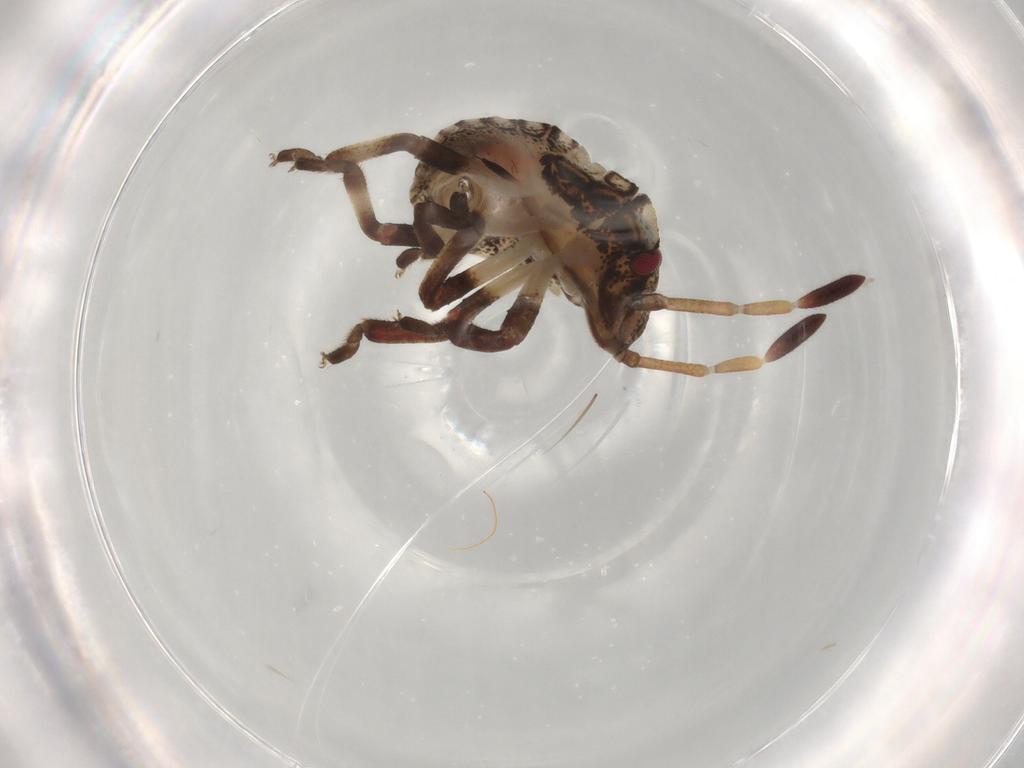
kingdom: Animalia
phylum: Arthropoda
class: Insecta
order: Hemiptera
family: Pentatomidae
